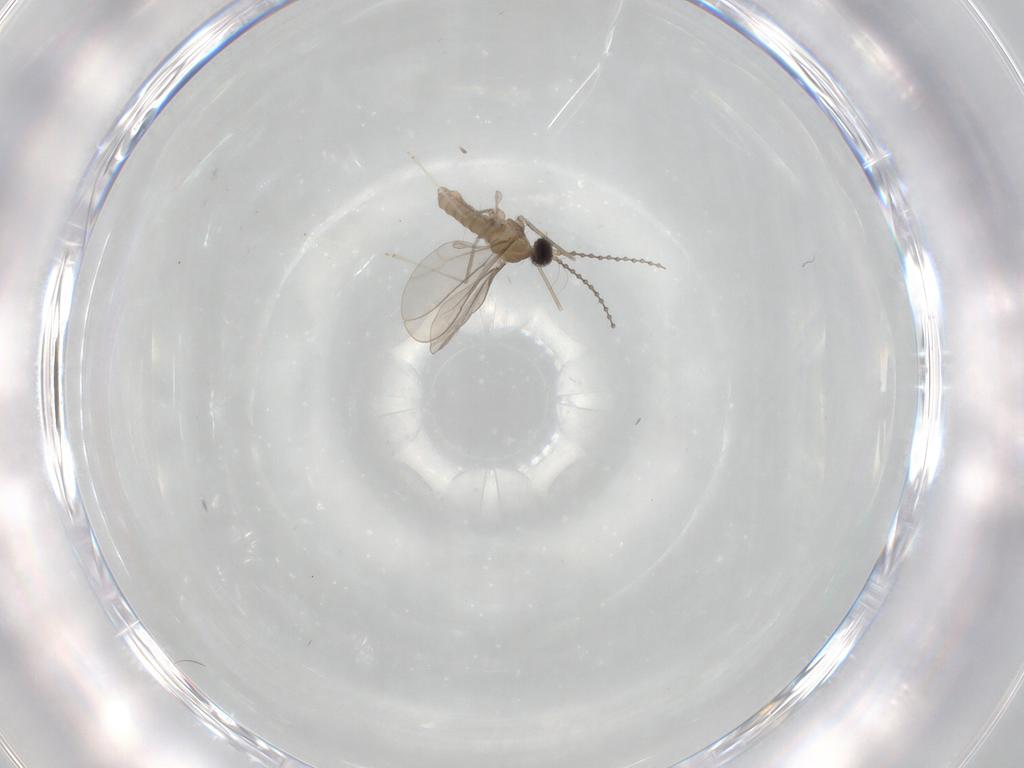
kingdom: Animalia
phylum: Arthropoda
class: Insecta
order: Diptera
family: Cecidomyiidae
